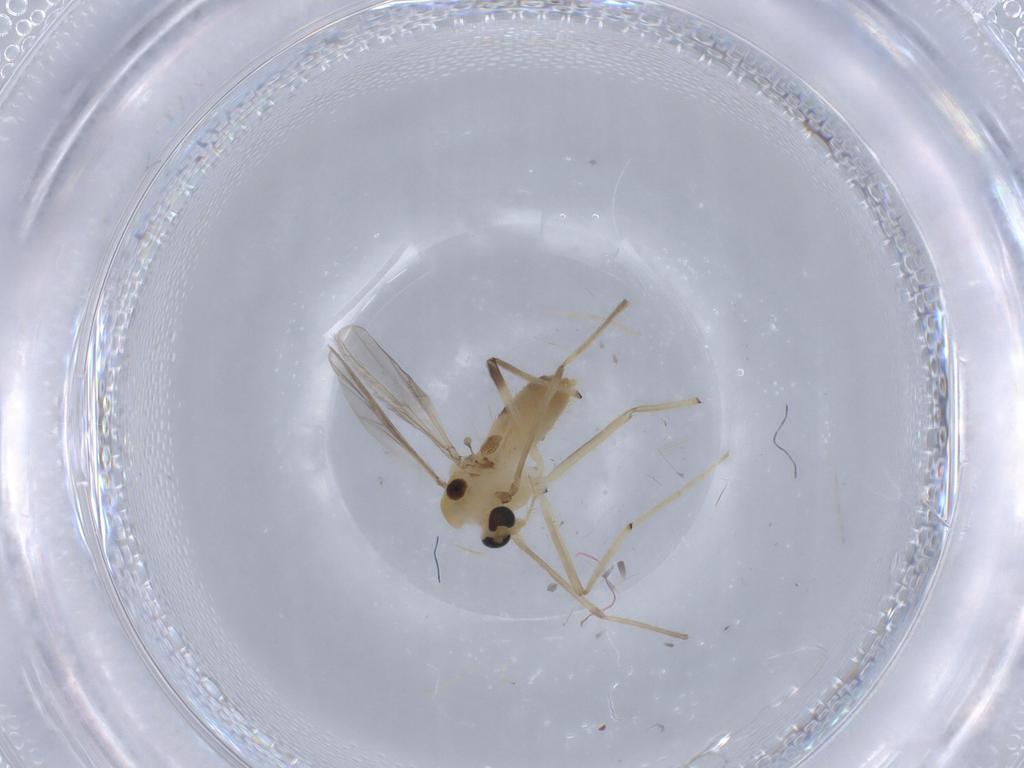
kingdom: Animalia
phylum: Arthropoda
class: Insecta
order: Diptera
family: Chironomidae
